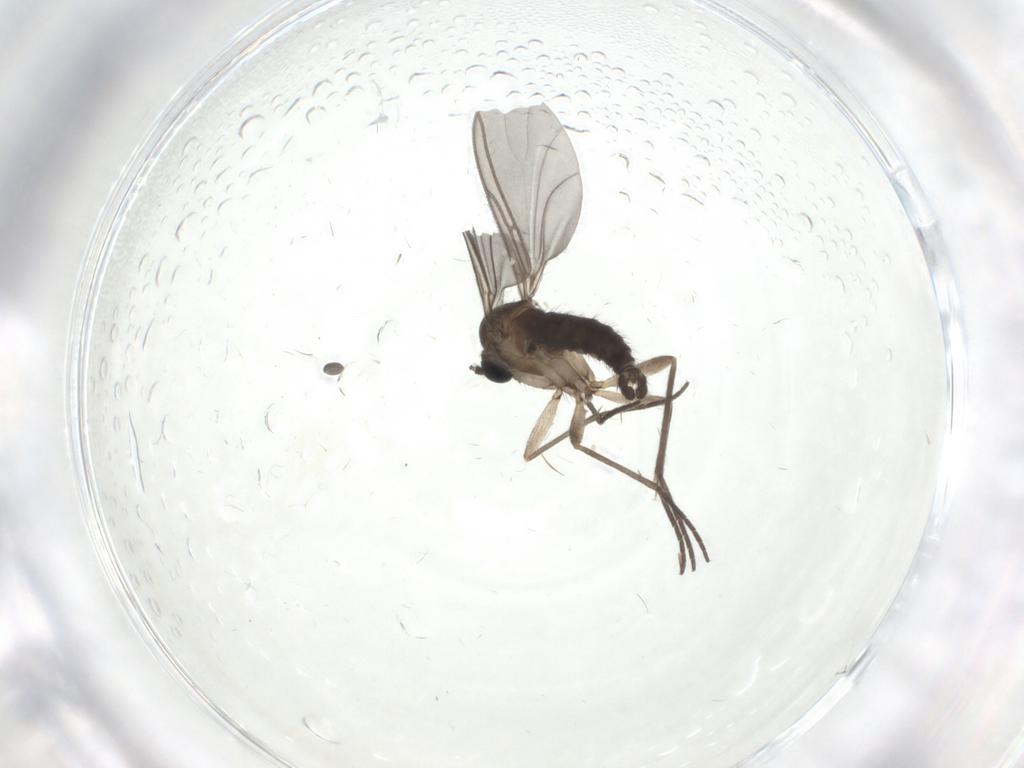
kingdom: Animalia
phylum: Arthropoda
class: Insecta
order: Diptera
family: Sciaridae
